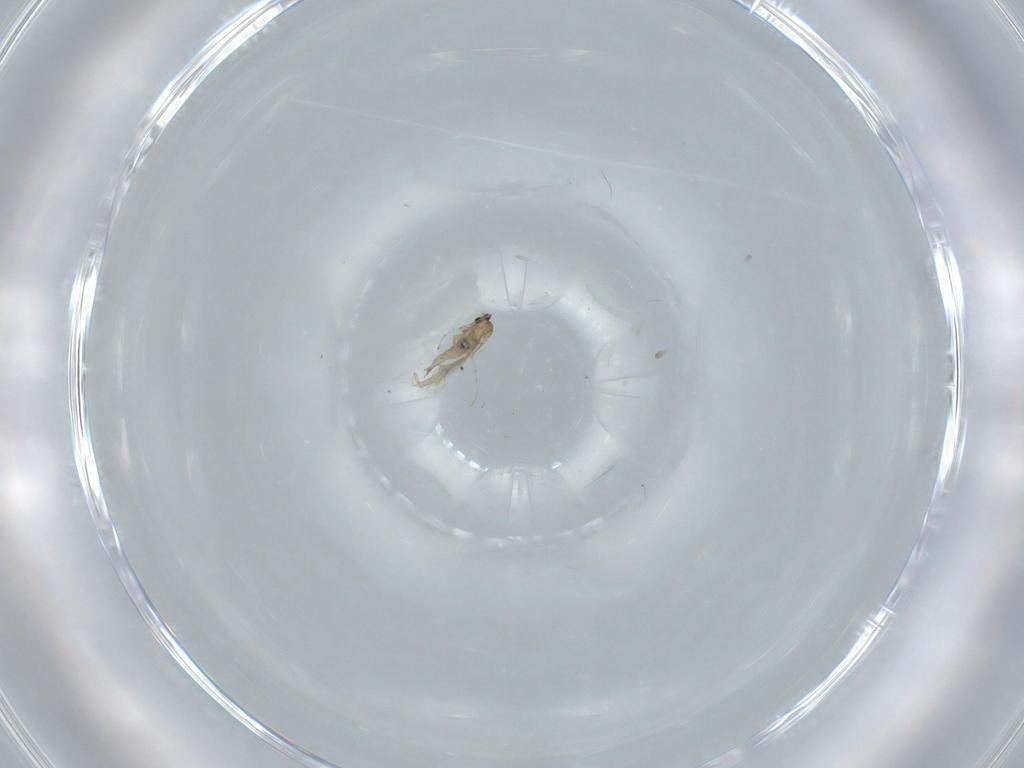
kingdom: Animalia
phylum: Arthropoda
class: Insecta
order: Diptera
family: Cecidomyiidae
